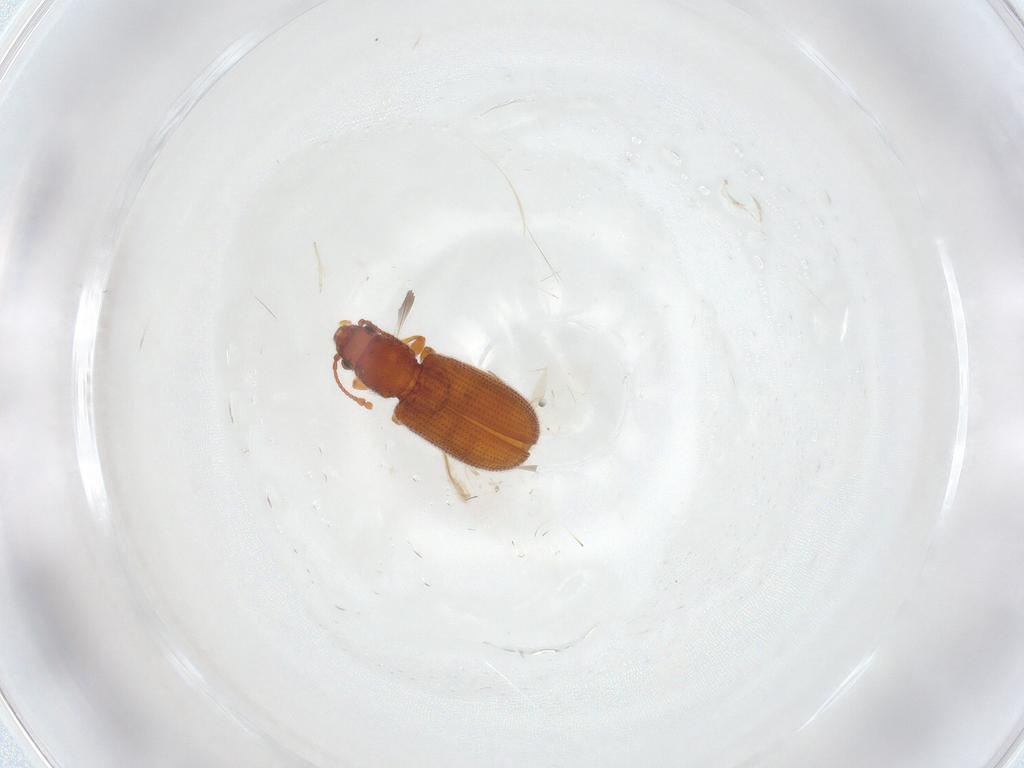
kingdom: Animalia
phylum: Arthropoda
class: Insecta
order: Coleoptera
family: Mycetophagidae
